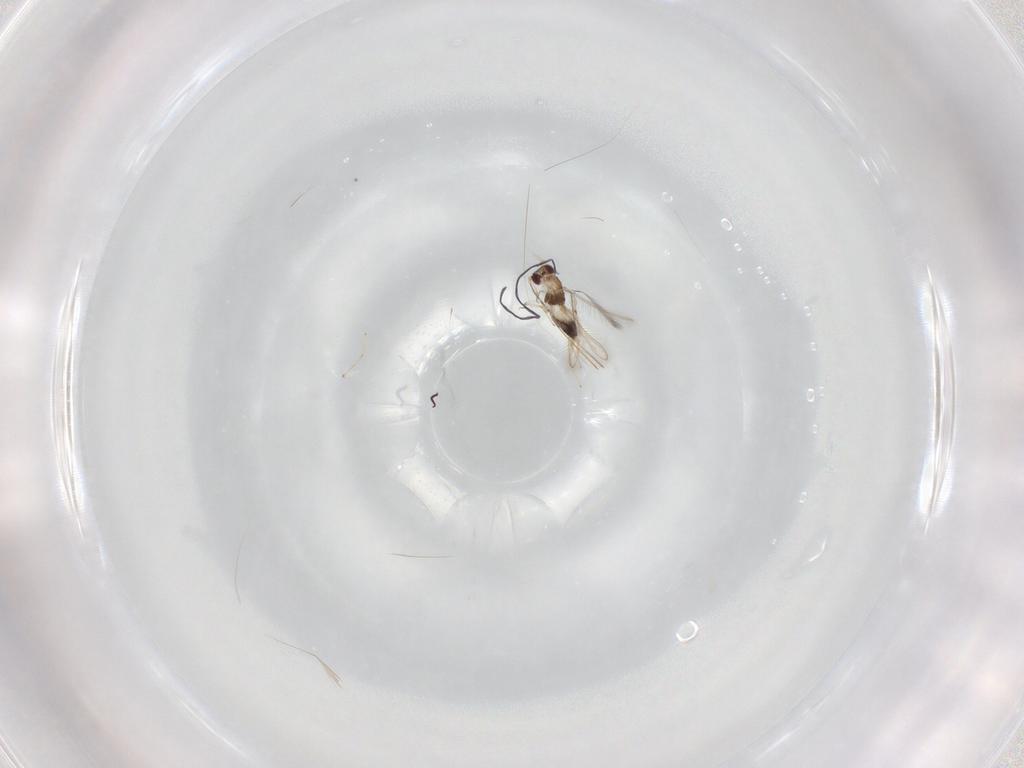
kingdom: Animalia
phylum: Arthropoda
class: Insecta
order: Hymenoptera
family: Mymaridae
